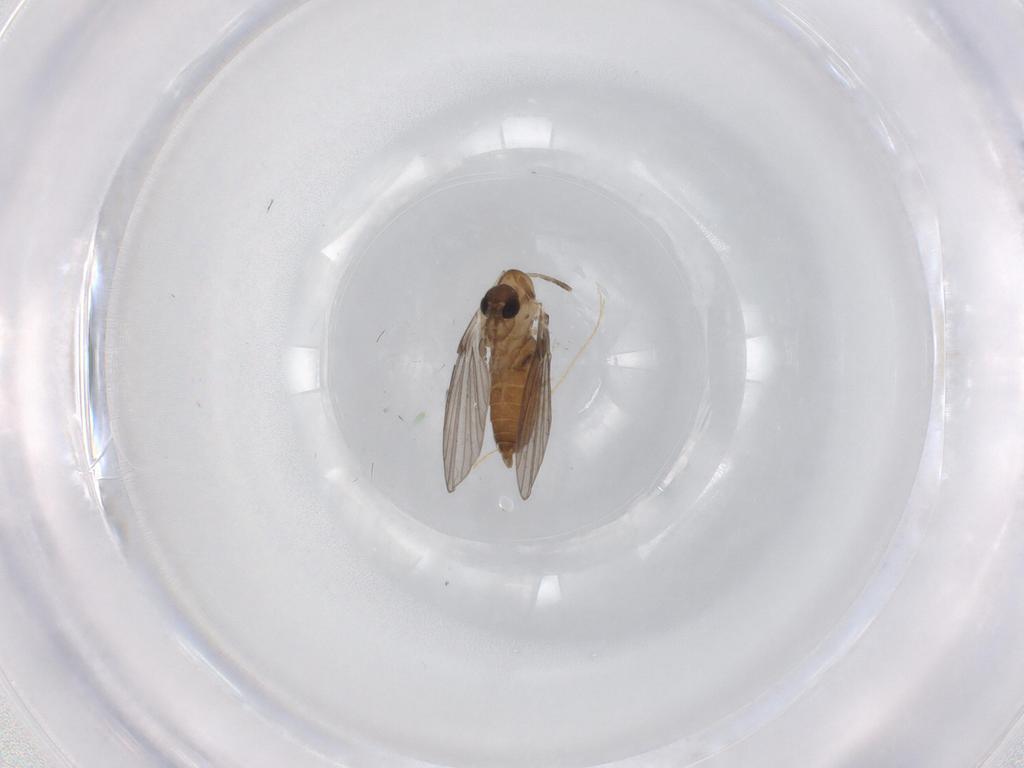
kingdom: Animalia
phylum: Arthropoda
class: Insecta
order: Diptera
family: Cecidomyiidae
